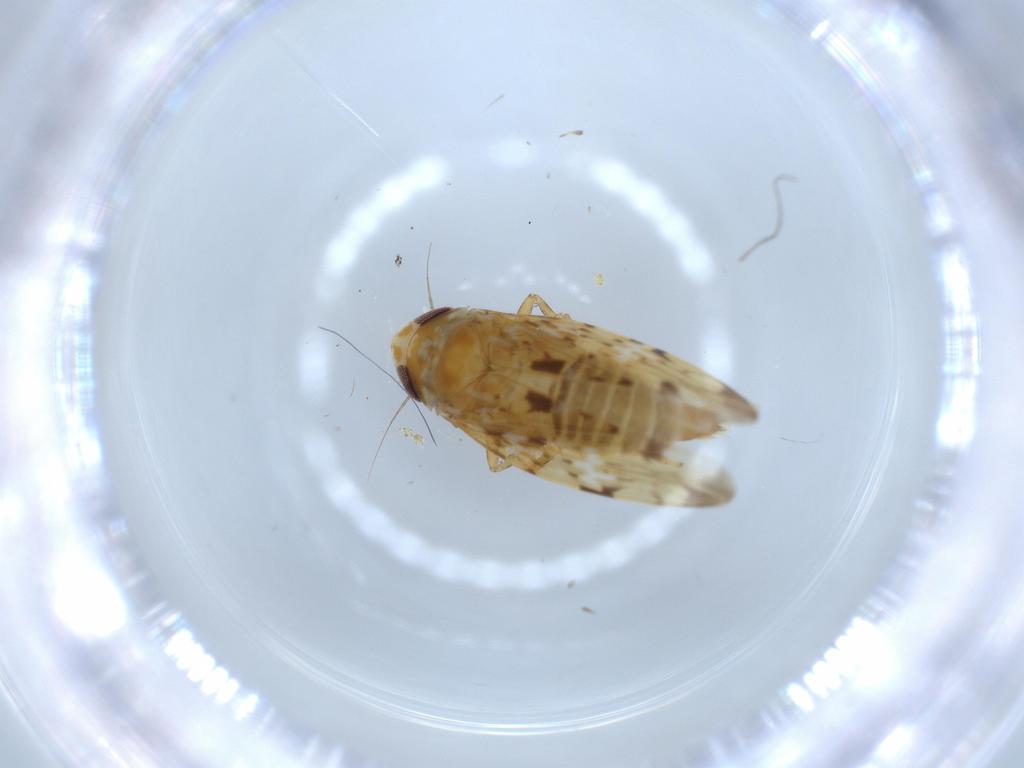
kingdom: Animalia
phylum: Arthropoda
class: Insecta
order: Hemiptera
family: Cicadellidae
